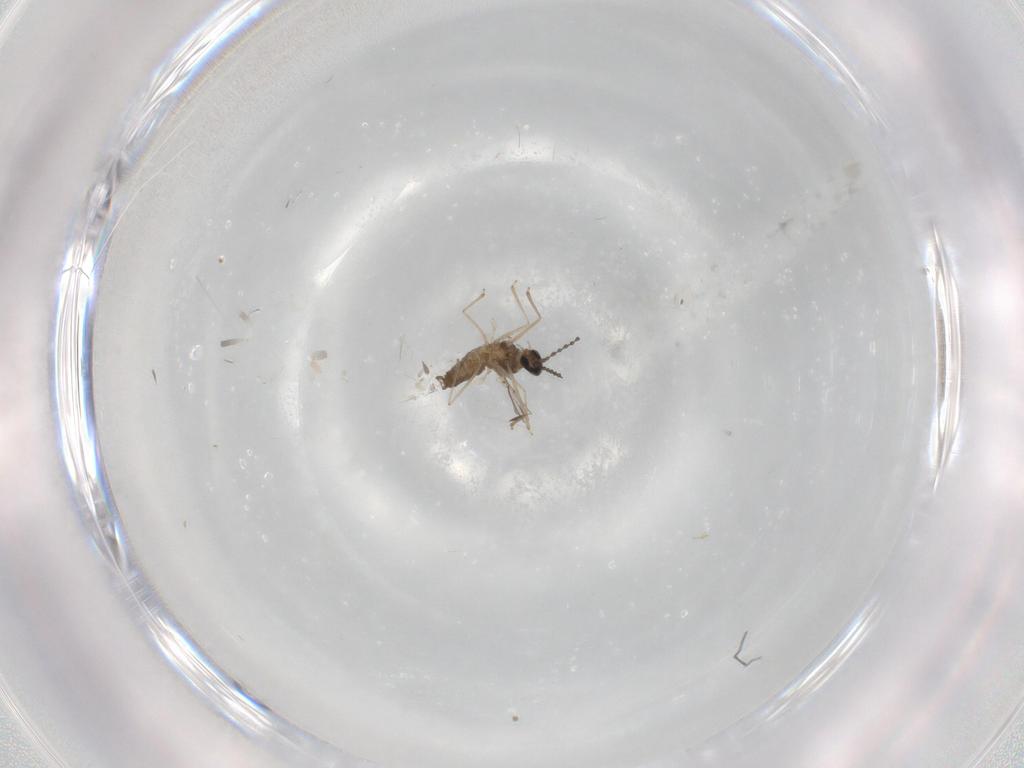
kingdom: Animalia
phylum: Arthropoda
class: Insecta
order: Diptera
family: Cecidomyiidae
